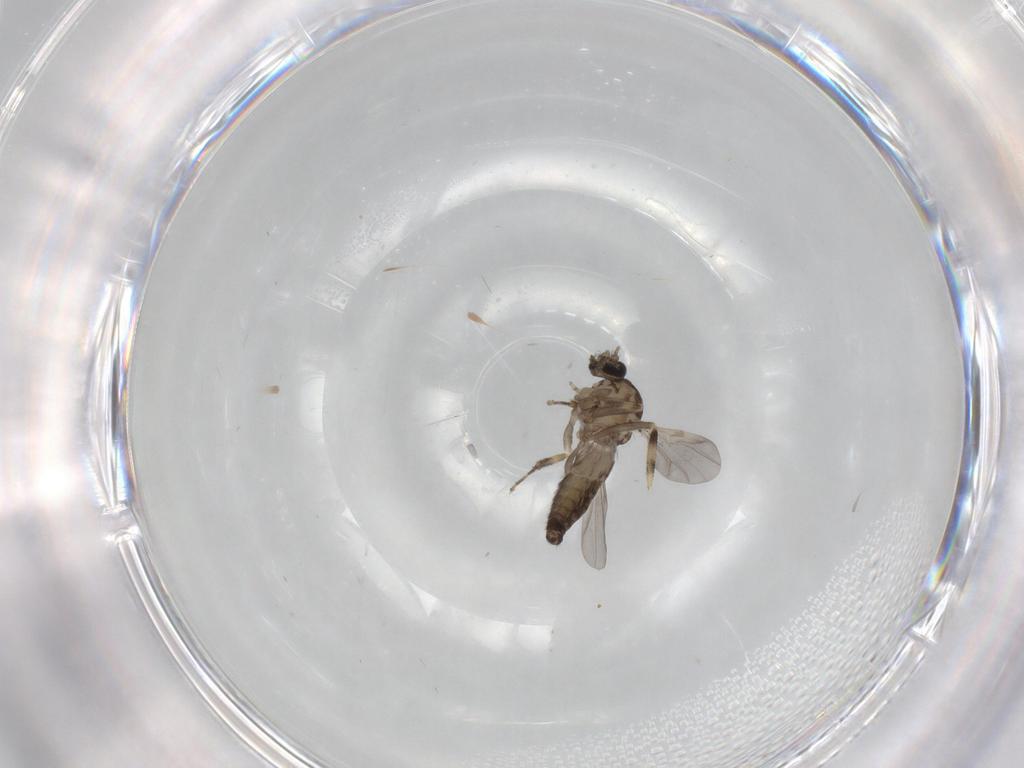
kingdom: Animalia
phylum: Arthropoda
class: Insecta
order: Diptera
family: Ceratopogonidae
